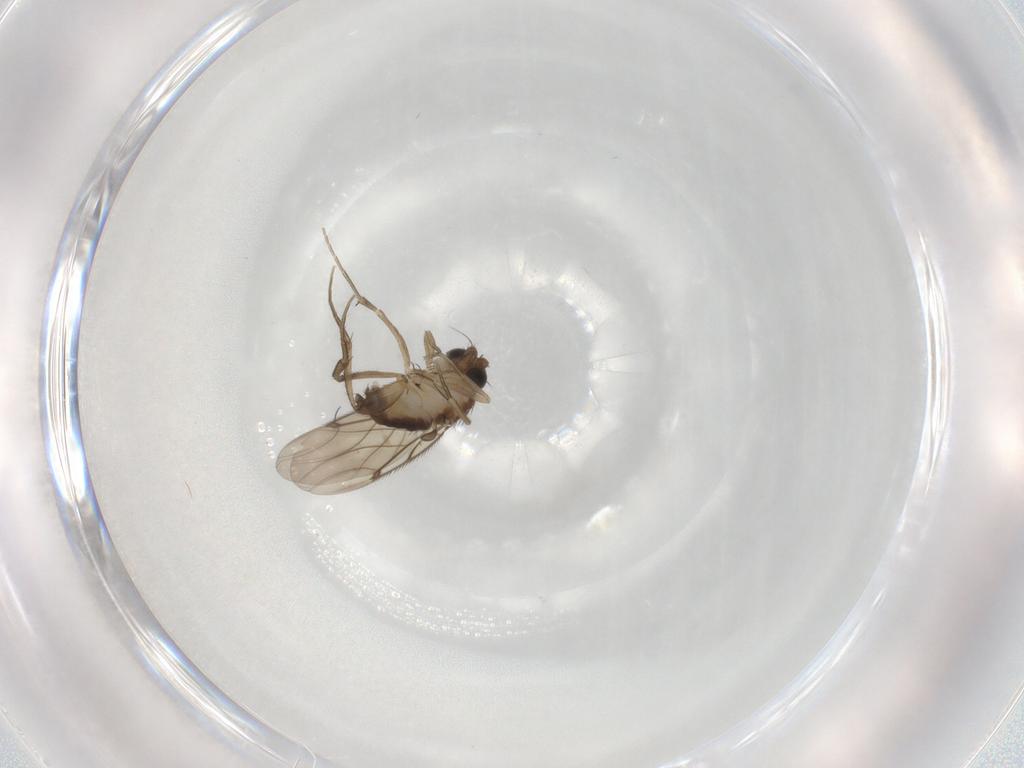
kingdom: Animalia
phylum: Arthropoda
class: Insecta
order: Diptera
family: Phoridae
